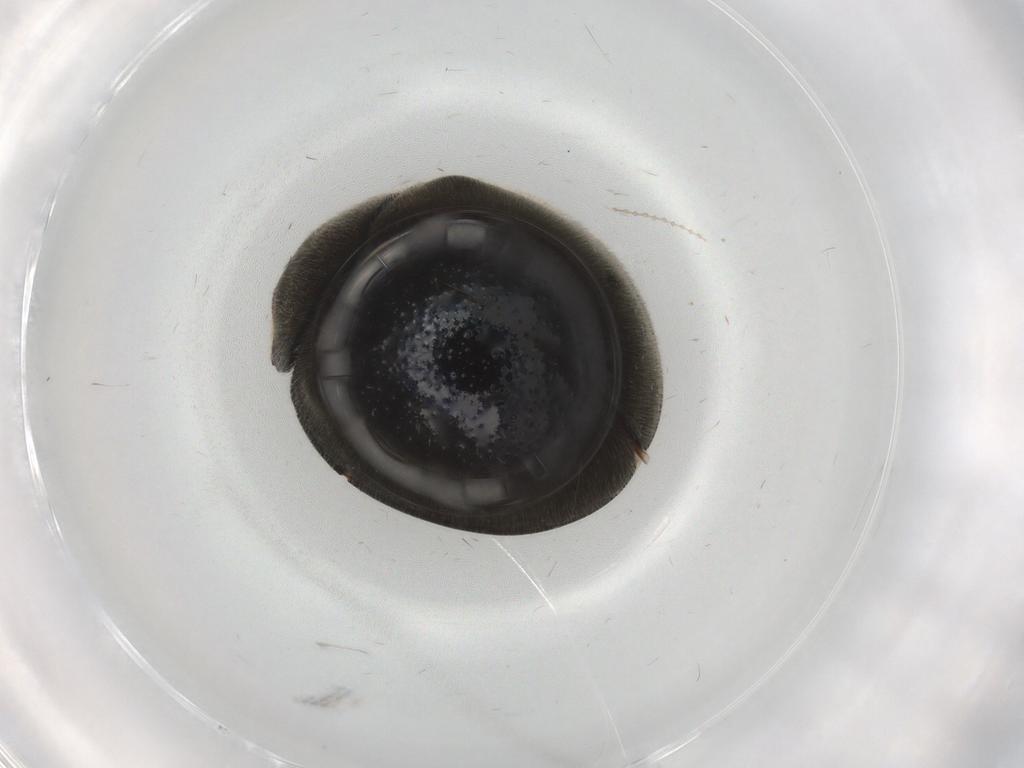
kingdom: Animalia
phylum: Arthropoda
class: Insecta
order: Coleoptera
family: Coccinellidae
